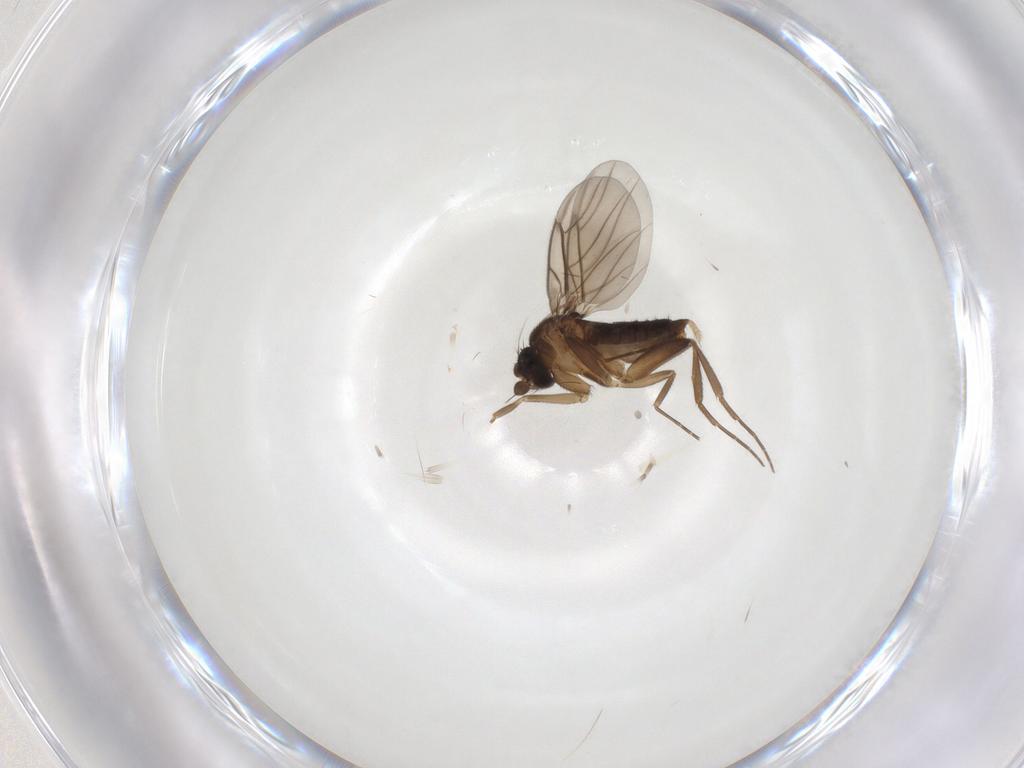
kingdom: Animalia
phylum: Arthropoda
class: Insecta
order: Diptera
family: Phoridae
